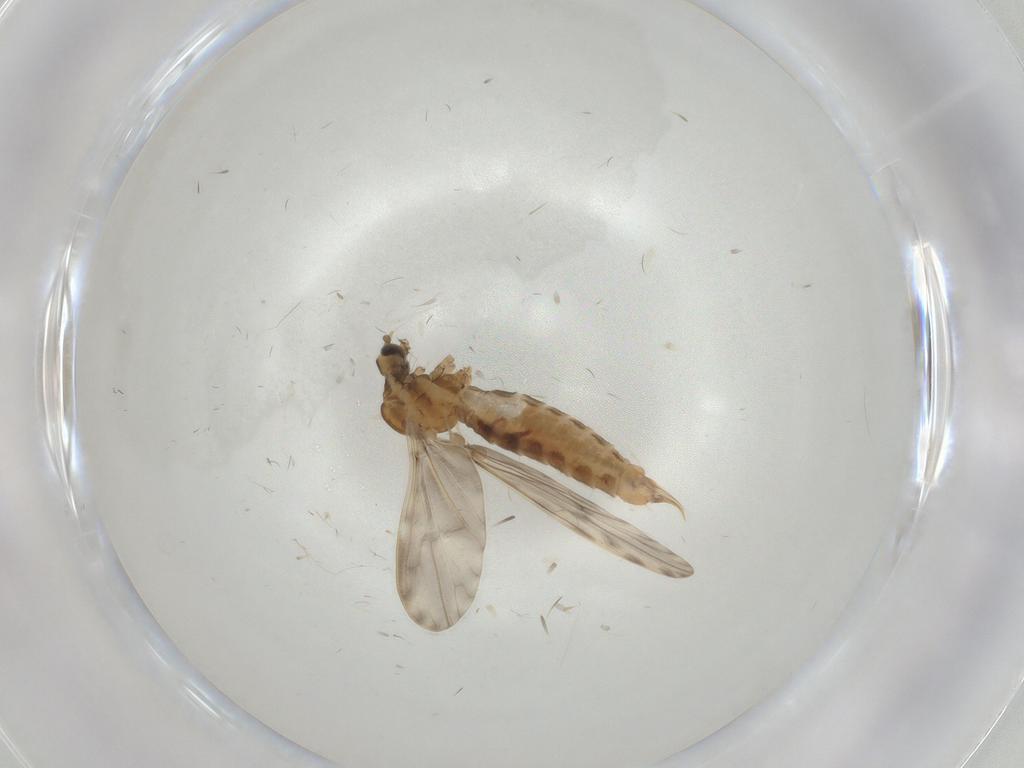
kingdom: Animalia
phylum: Arthropoda
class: Insecta
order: Diptera
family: Limoniidae
